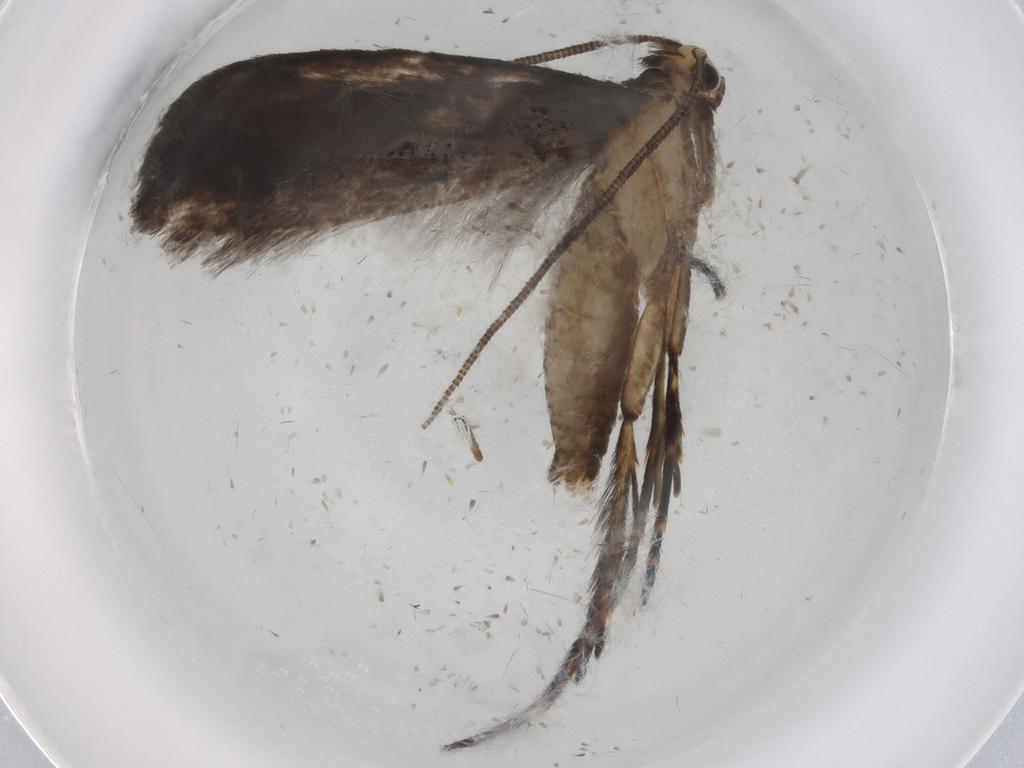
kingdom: Animalia
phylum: Arthropoda
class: Insecta
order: Lepidoptera
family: Tineidae
